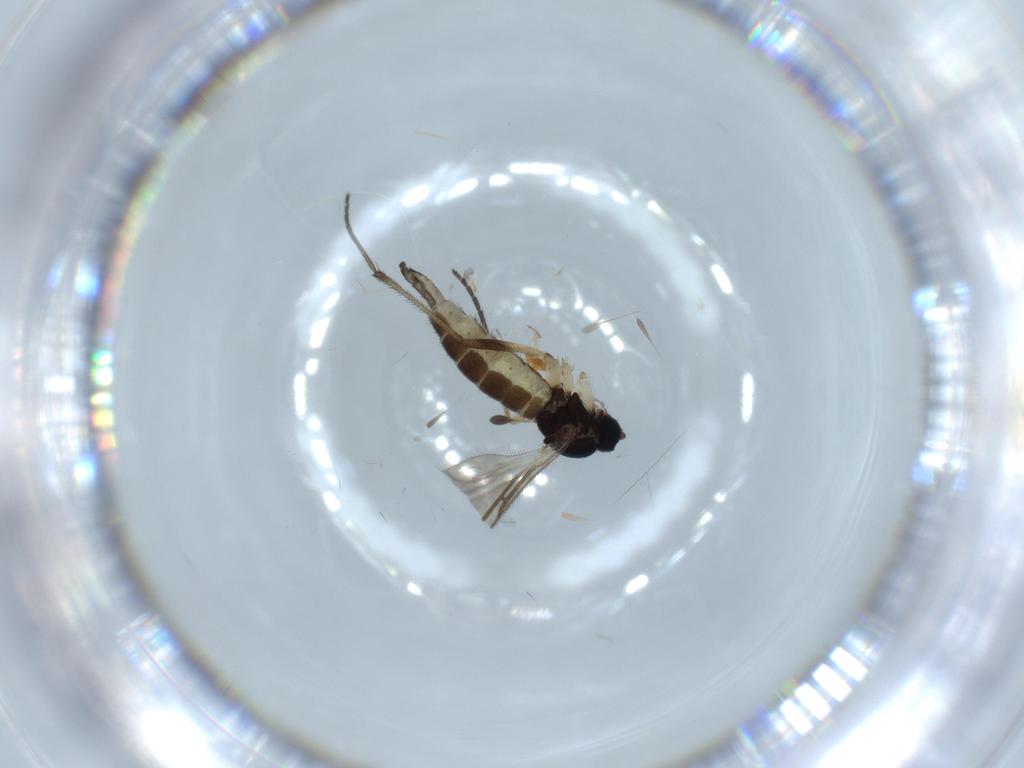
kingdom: Animalia
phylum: Arthropoda
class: Insecta
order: Diptera
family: Sciaridae
